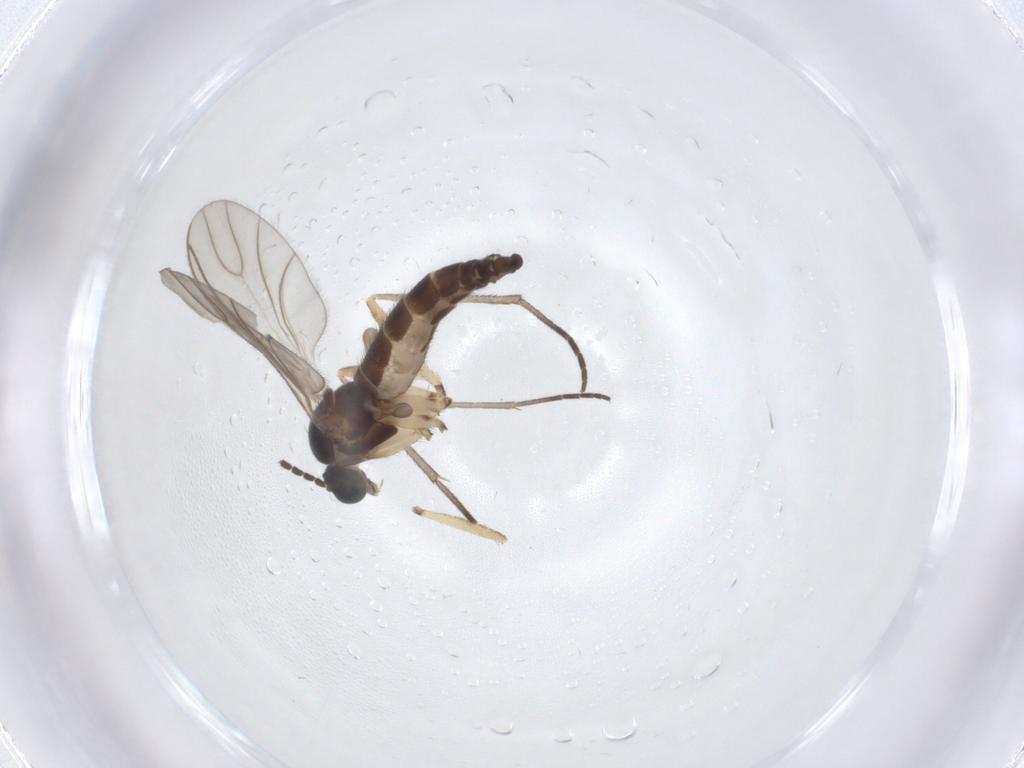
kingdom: Animalia
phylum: Arthropoda
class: Insecta
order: Diptera
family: Sciaridae
